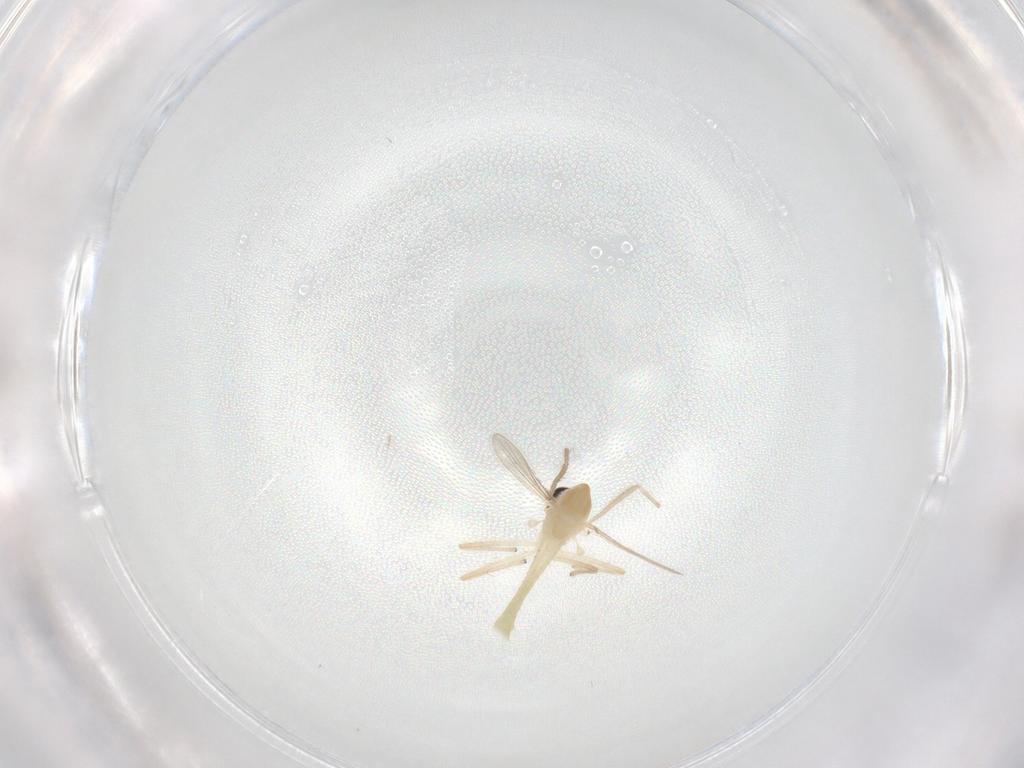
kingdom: Animalia
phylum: Arthropoda
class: Insecta
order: Diptera
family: Chironomidae
